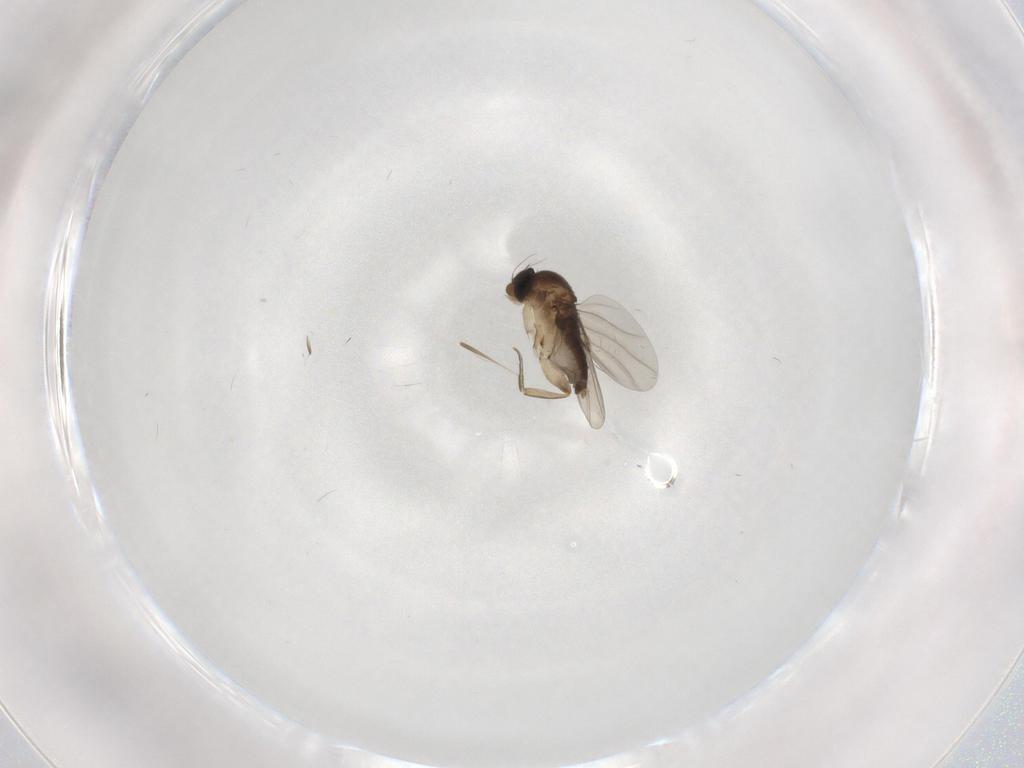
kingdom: Animalia
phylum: Arthropoda
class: Insecta
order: Diptera
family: Phoridae
